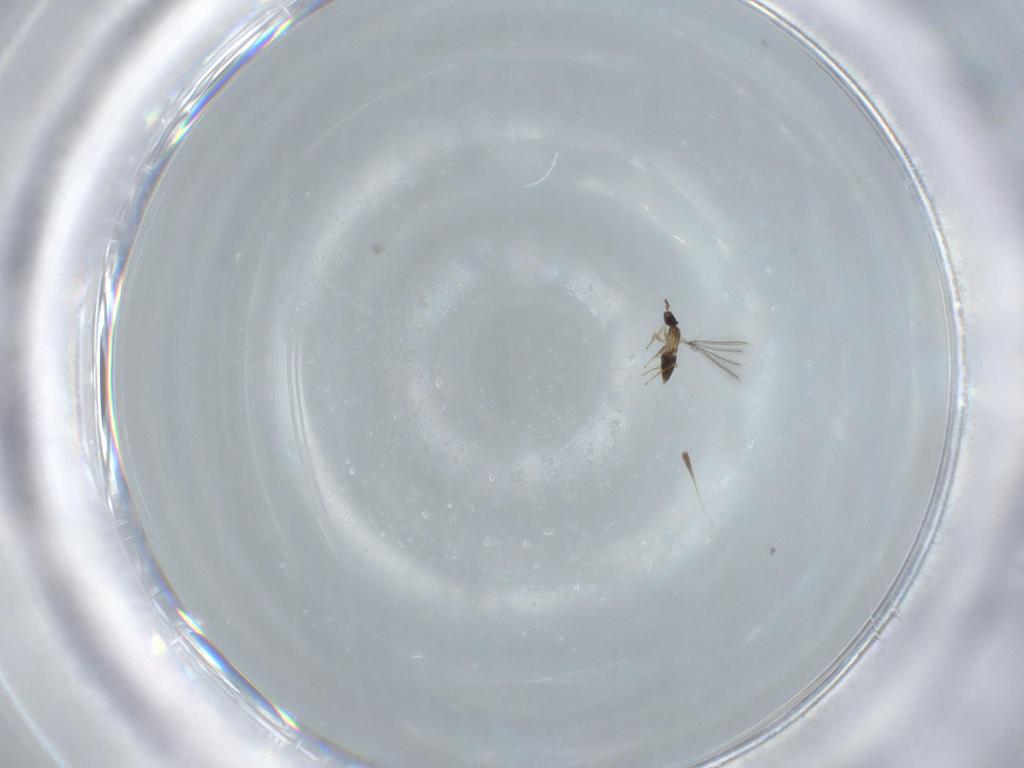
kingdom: Animalia
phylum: Arthropoda
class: Insecta
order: Hymenoptera
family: Mymaridae
